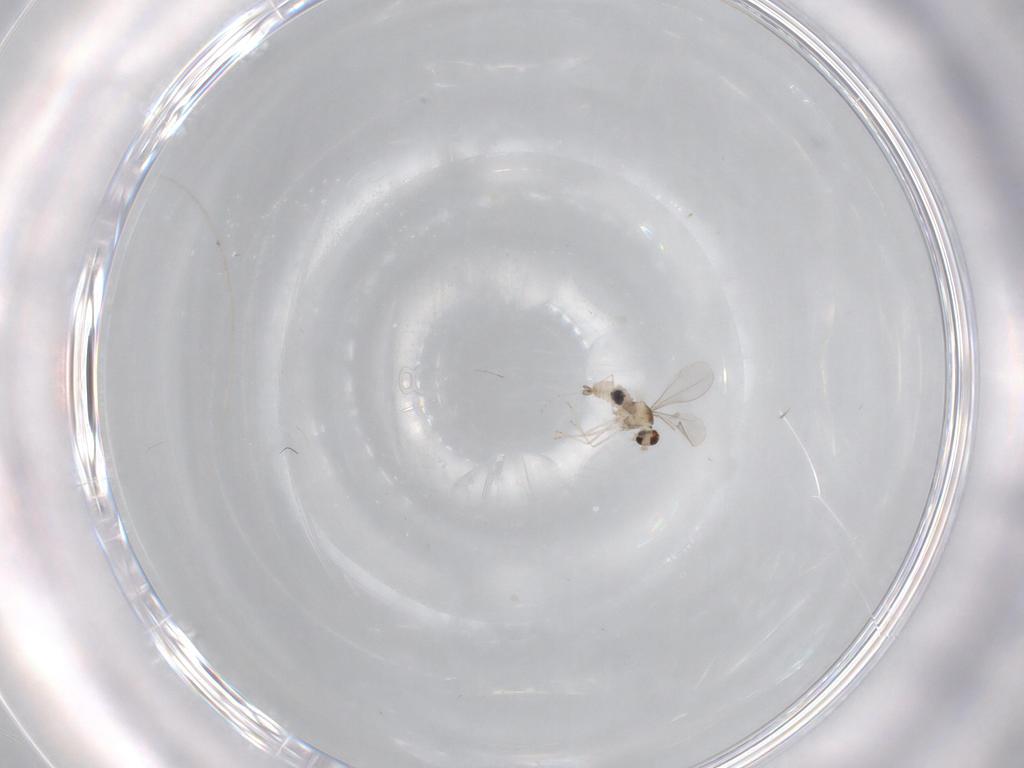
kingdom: Animalia
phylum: Arthropoda
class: Insecta
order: Diptera
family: Cecidomyiidae
